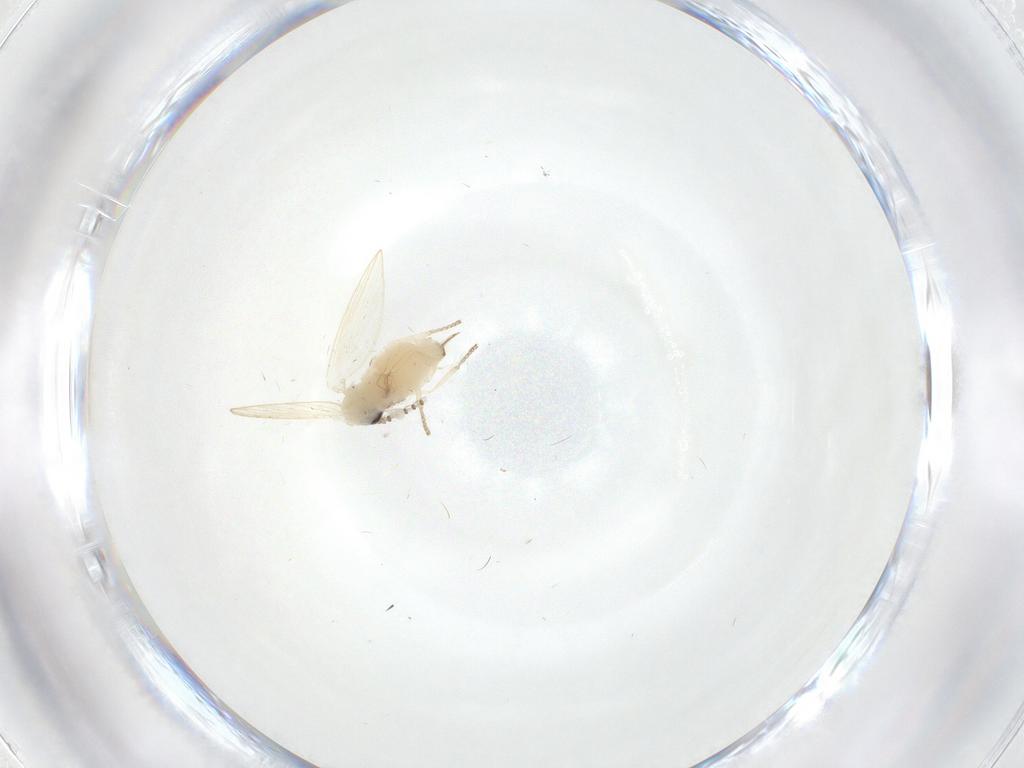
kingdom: Animalia
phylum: Arthropoda
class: Insecta
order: Diptera
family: Psychodidae
